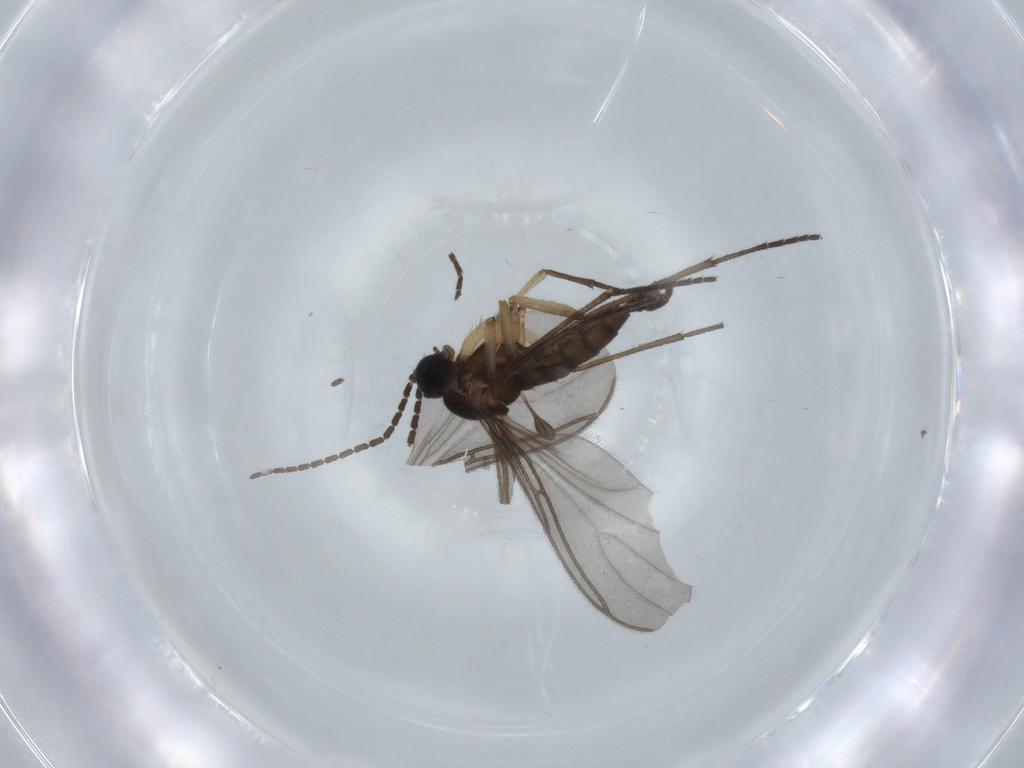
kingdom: Animalia
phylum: Arthropoda
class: Insecta
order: Diptera
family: Sciaridae
